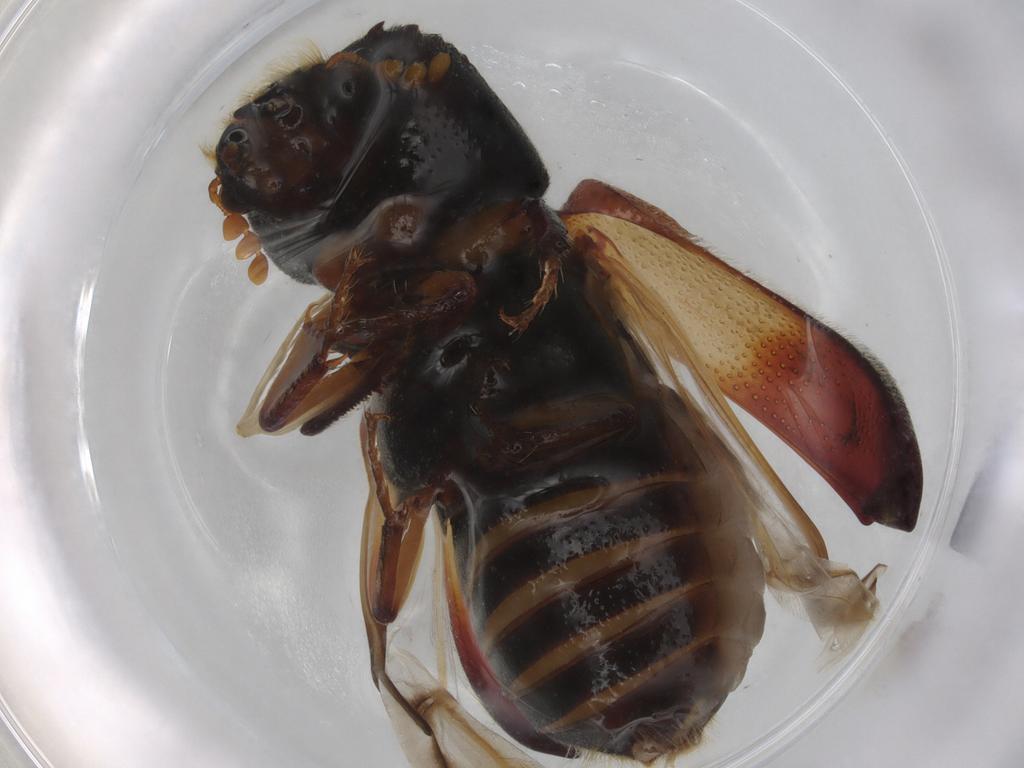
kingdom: Animalia
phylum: Arthropoda
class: Insecta
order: Coleoptera
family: Bostrichidae
